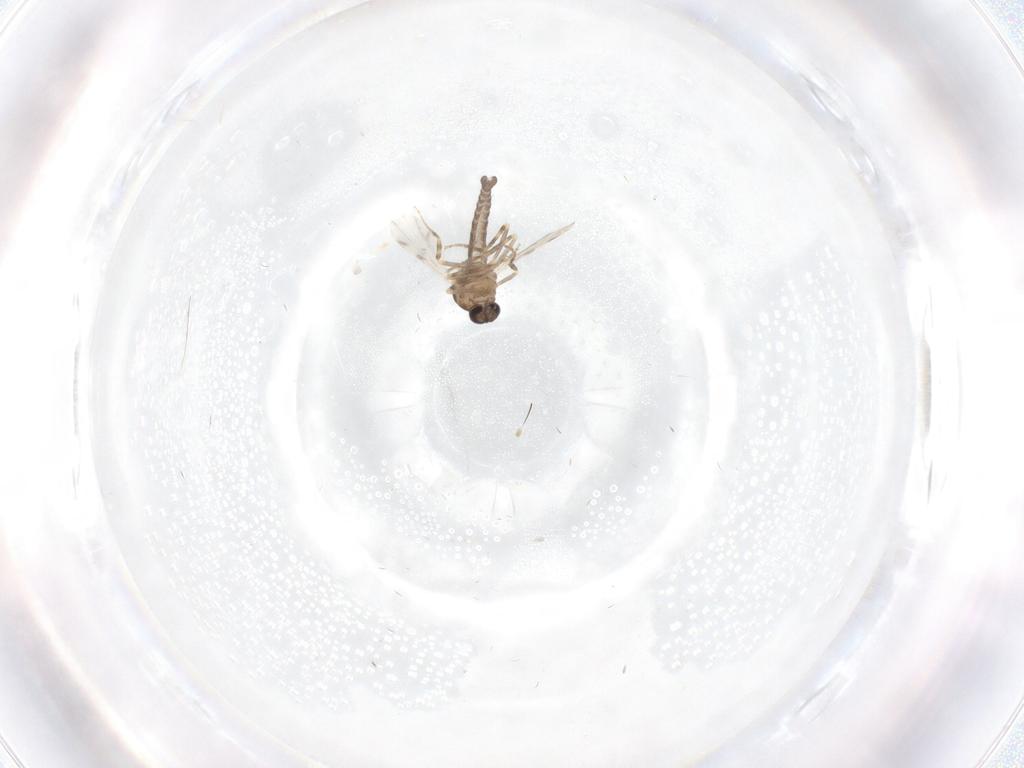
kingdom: Animalia
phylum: Arthropoda
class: Insecta
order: Diptera
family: Ceratopogonidae
